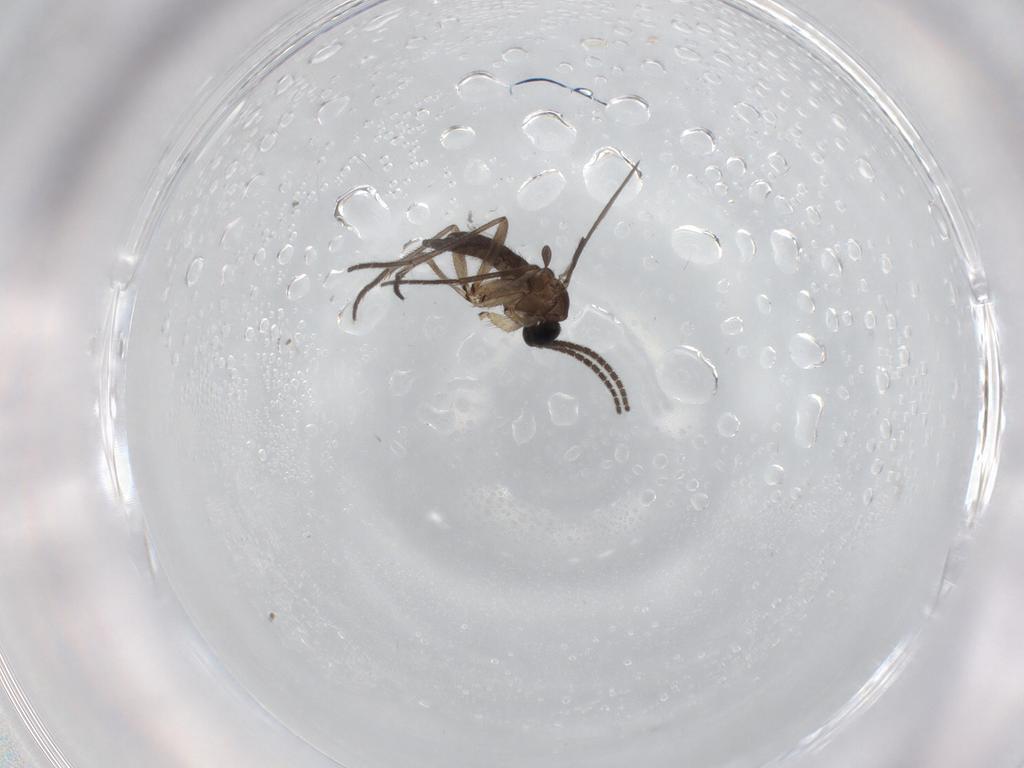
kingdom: Animalia
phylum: Arthropoda
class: Insecta
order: Diptera
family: Sciaridae
